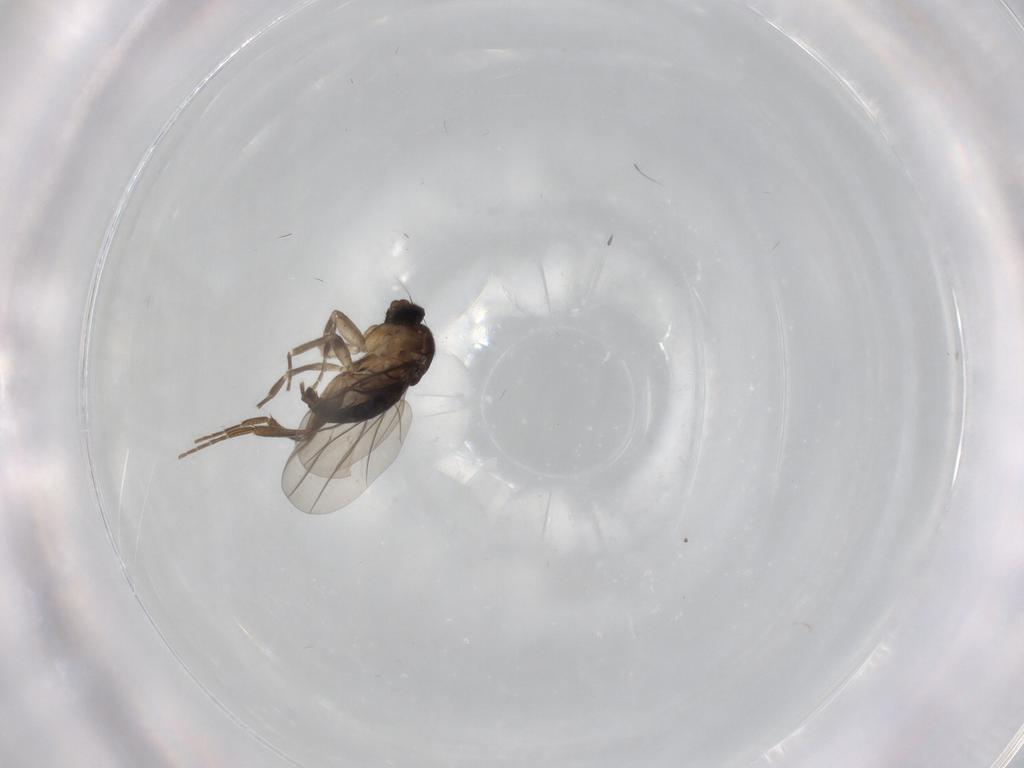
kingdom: Animalia
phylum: Arthropoda
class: Insecta
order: Diptera
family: Phoridae
